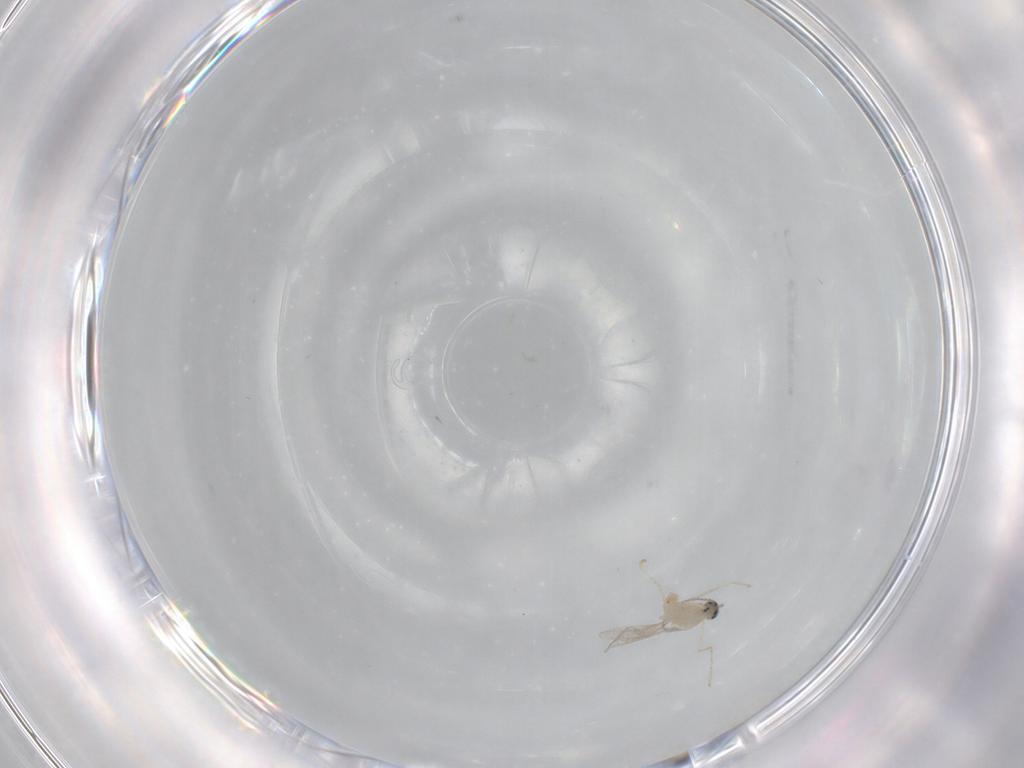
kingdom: Animalia
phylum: Arthropoda
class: Insecta
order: Diptera
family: Cecidomyiidae
